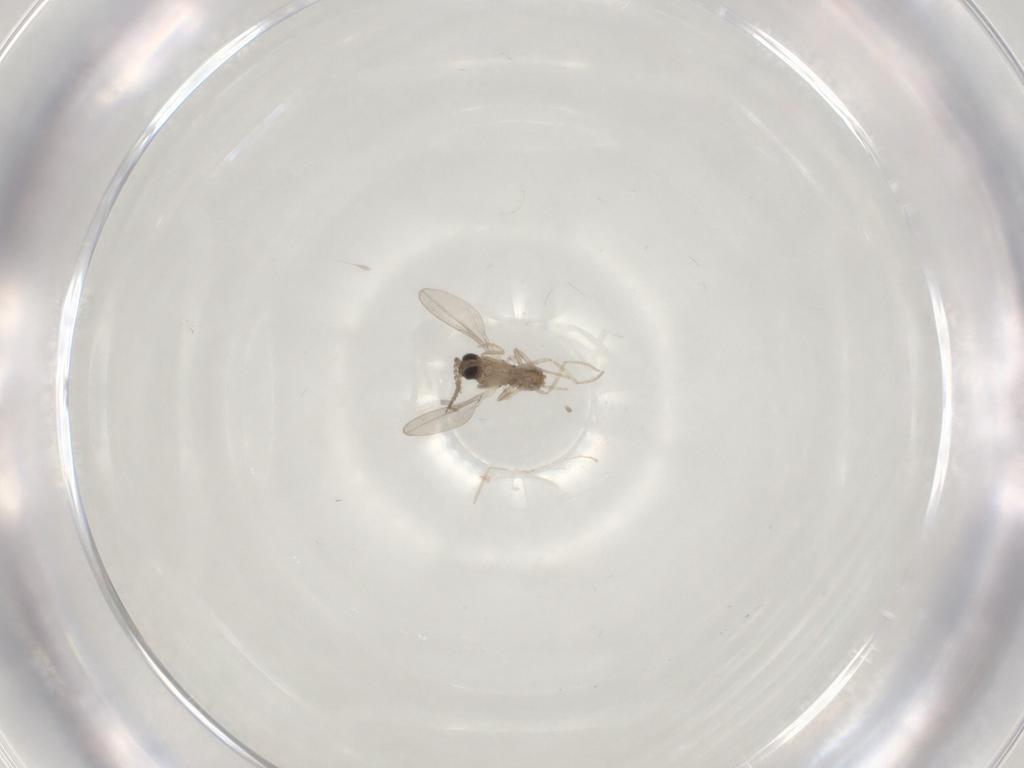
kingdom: Animalia
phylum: Arthropoda
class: Insecta
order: Diptera
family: Cecidomyiidae
